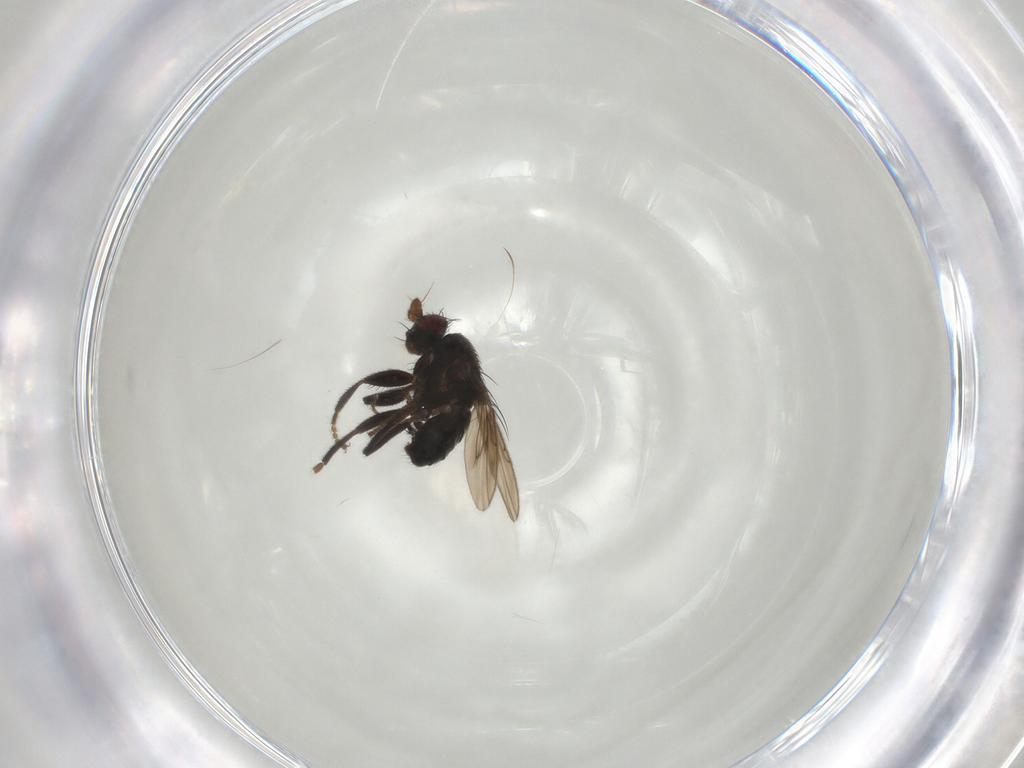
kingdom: Animalia
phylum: Arthropoda
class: Insecta
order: Diptera
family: Sphaeroceridae
